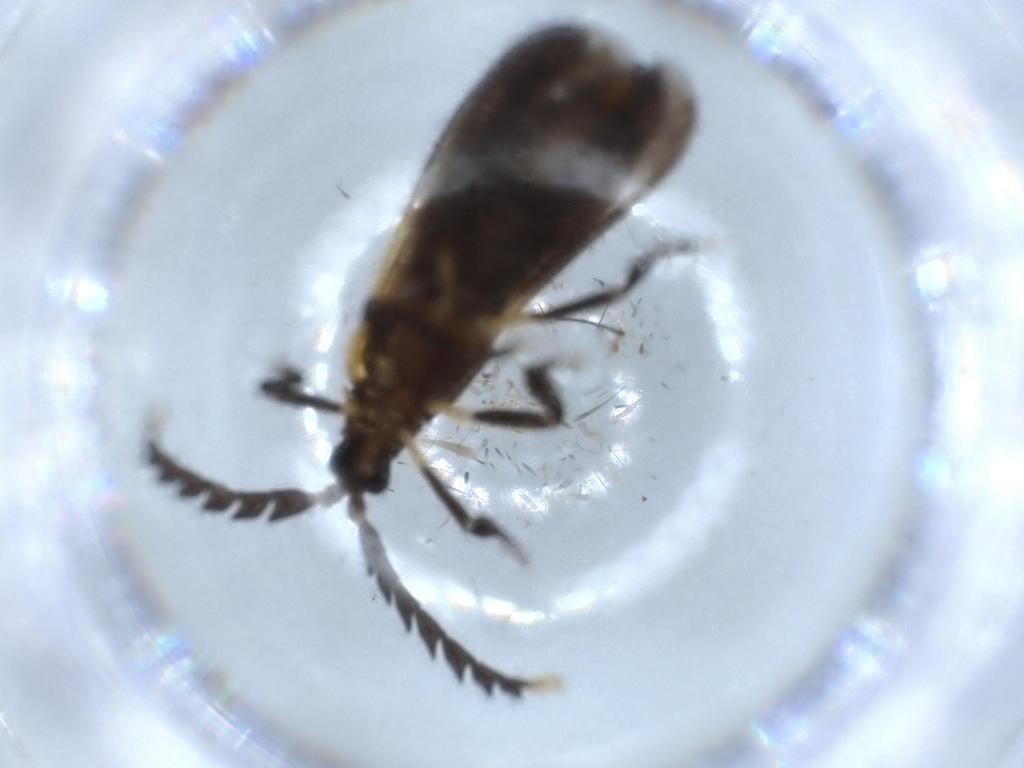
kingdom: Animalia
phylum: Arthropoda
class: Insecta
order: Coleoptera
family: Lycidae
